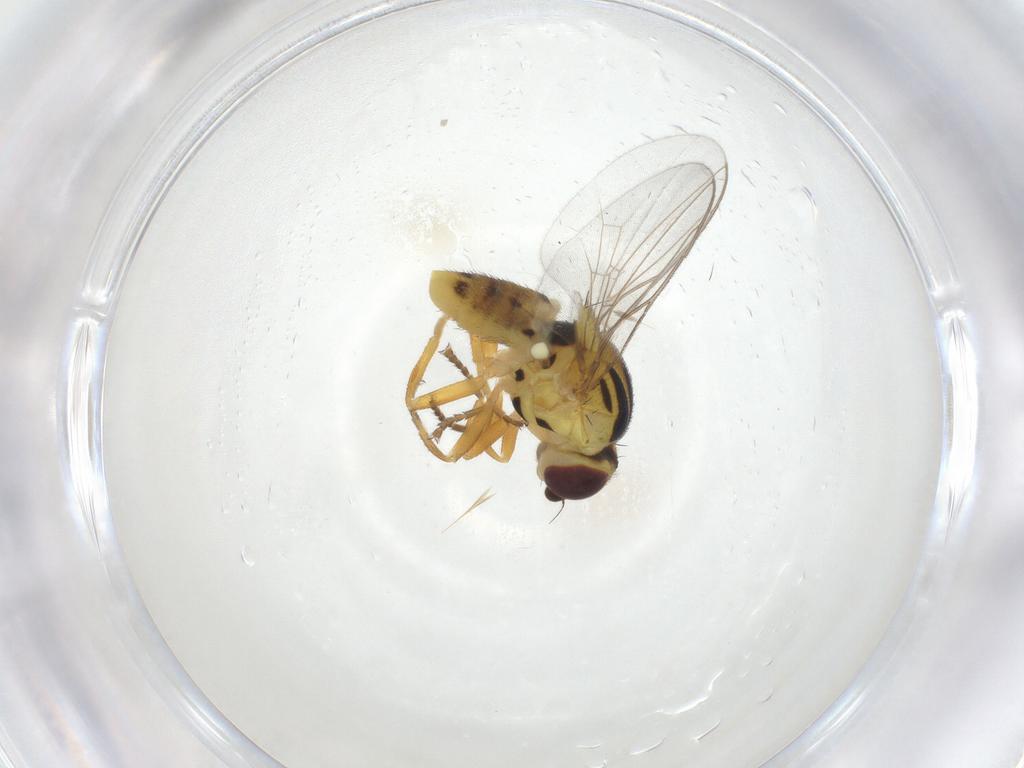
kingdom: Animalia
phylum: Arthropoda
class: Insecta
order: Diptera
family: Chloropidae
